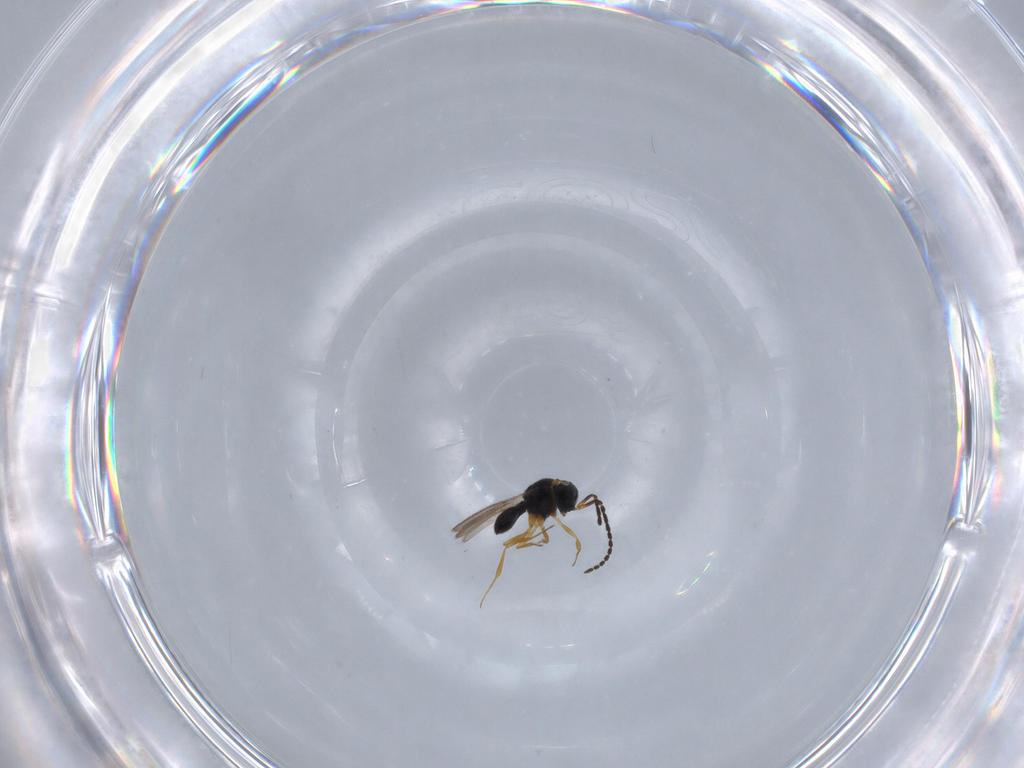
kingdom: Animalia
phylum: Arthropoda
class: Insecta
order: Hymenoptera
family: Scelionidae
